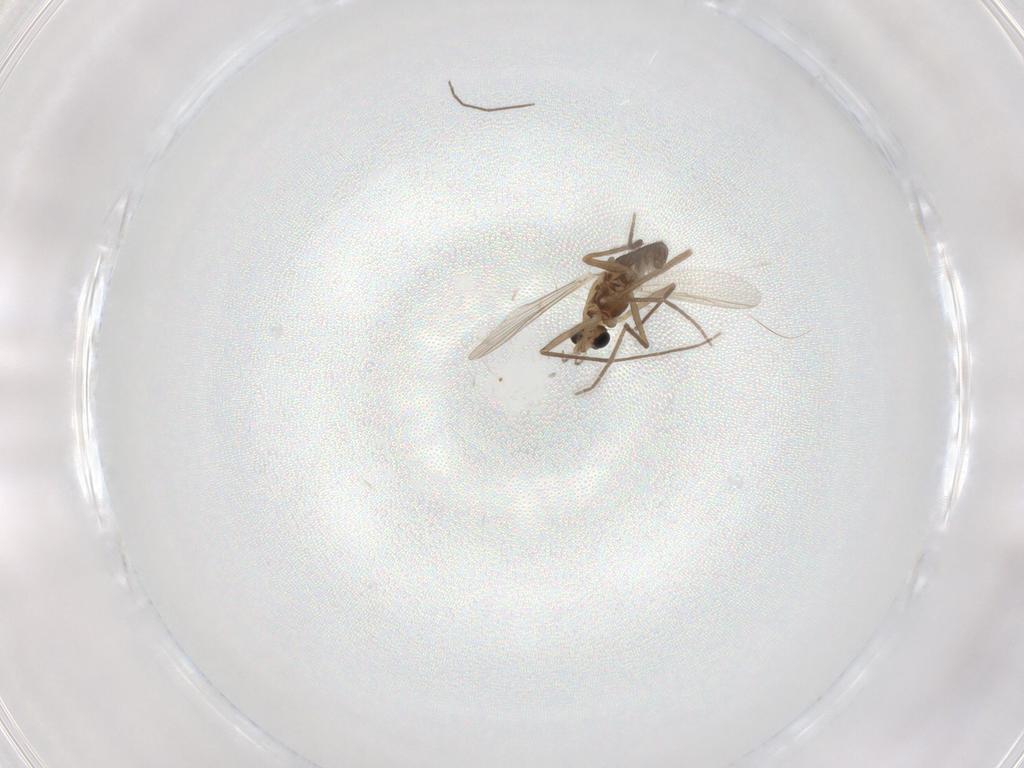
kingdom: Animalia
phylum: Arthropoda
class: Insecta
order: Diptera
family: Chironomidae
